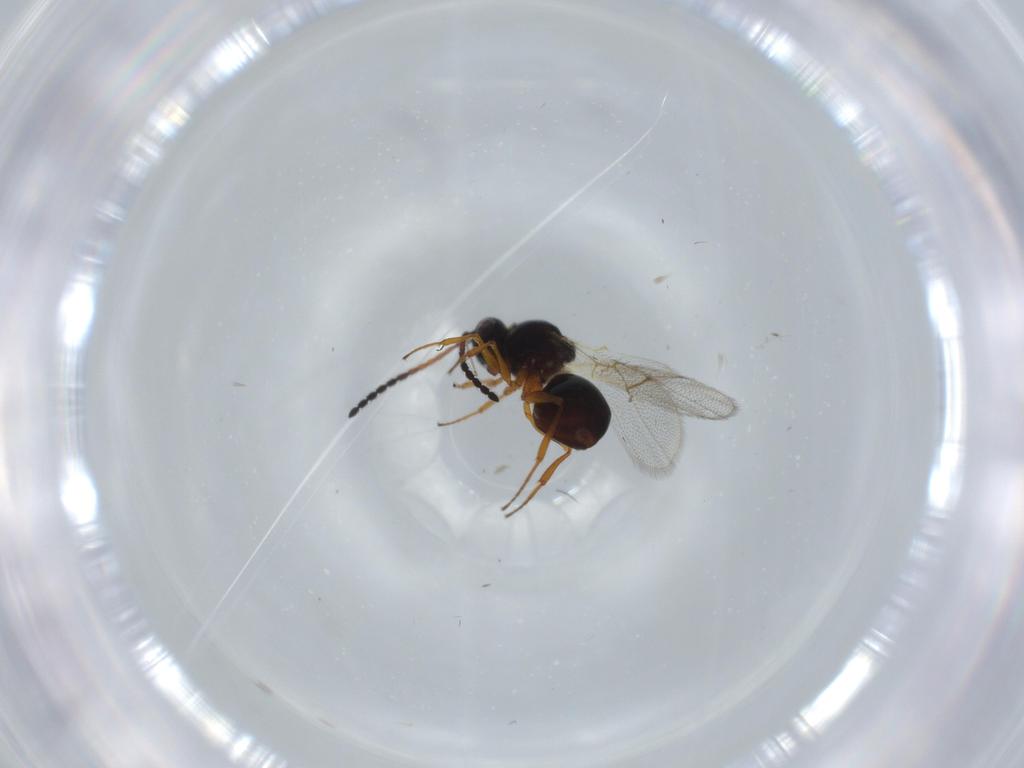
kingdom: Animalia
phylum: Arthropoda
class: Insecta
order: Hymenoptera
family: Figitidae
